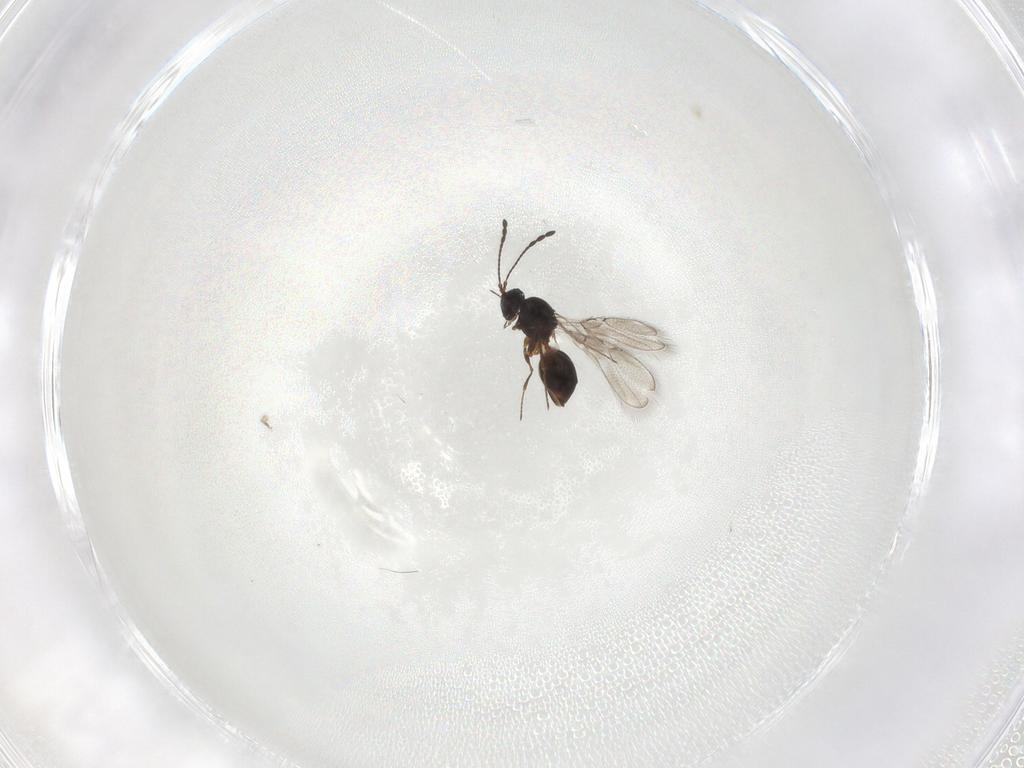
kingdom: Animalia
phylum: Arthropoda
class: Insecta
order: Hymenoptera
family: Figitidae
